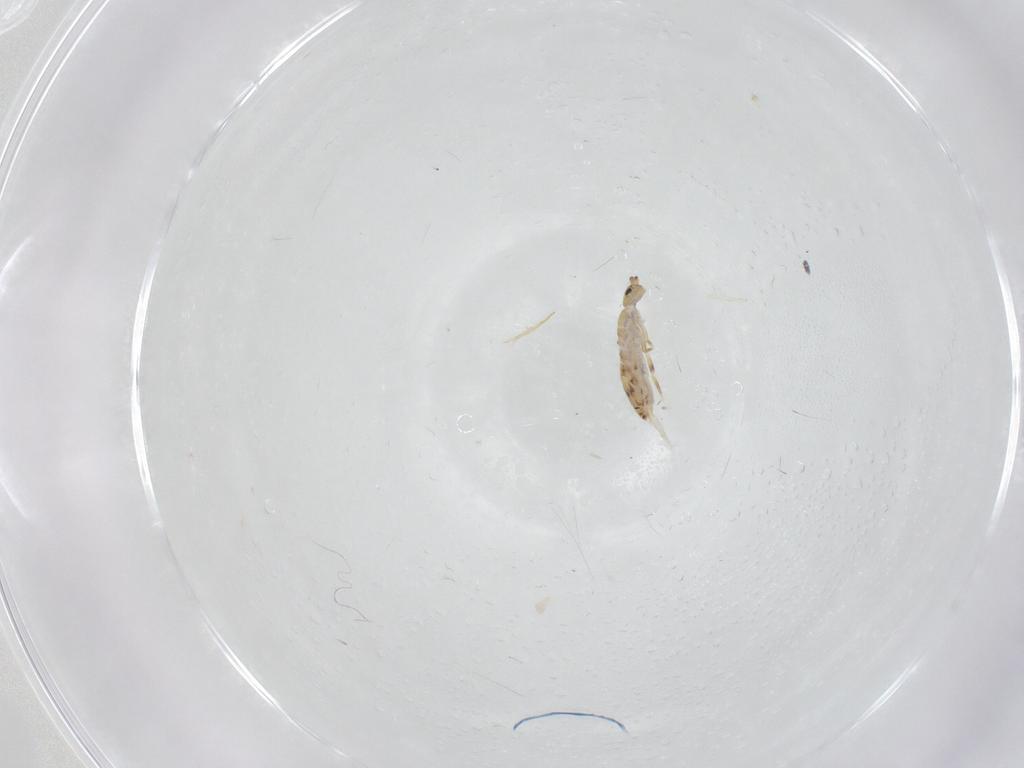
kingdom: Animalia
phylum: Arthropoda
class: Collembola
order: Entomobryomorpha
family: Entomobryidae
